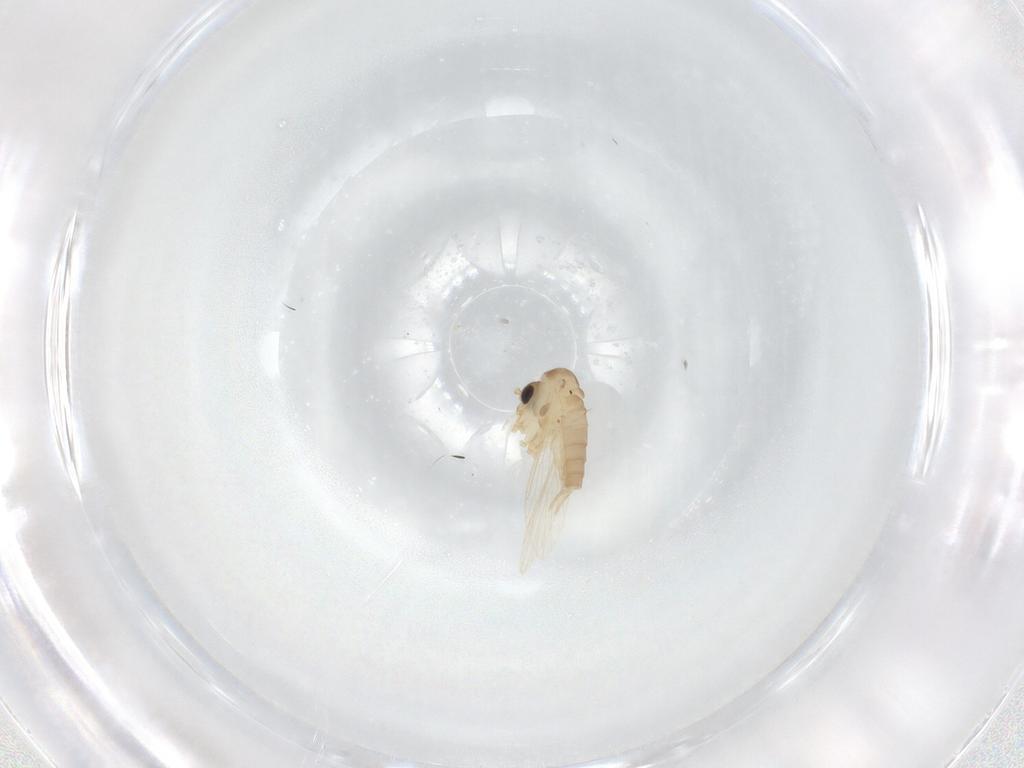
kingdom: Animalia
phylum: Arthropoda
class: Insecta
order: Diptera
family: Psychodidae
